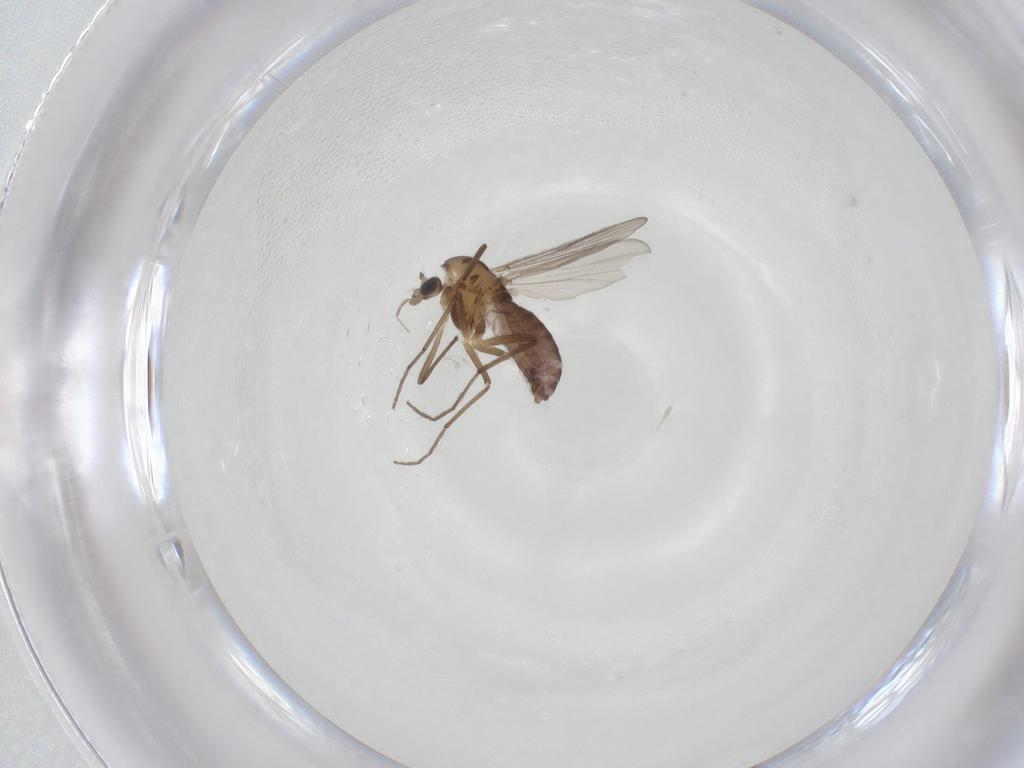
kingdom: Animalia
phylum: Arthropoda
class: Insecta
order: Diptera
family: Chironomidae
